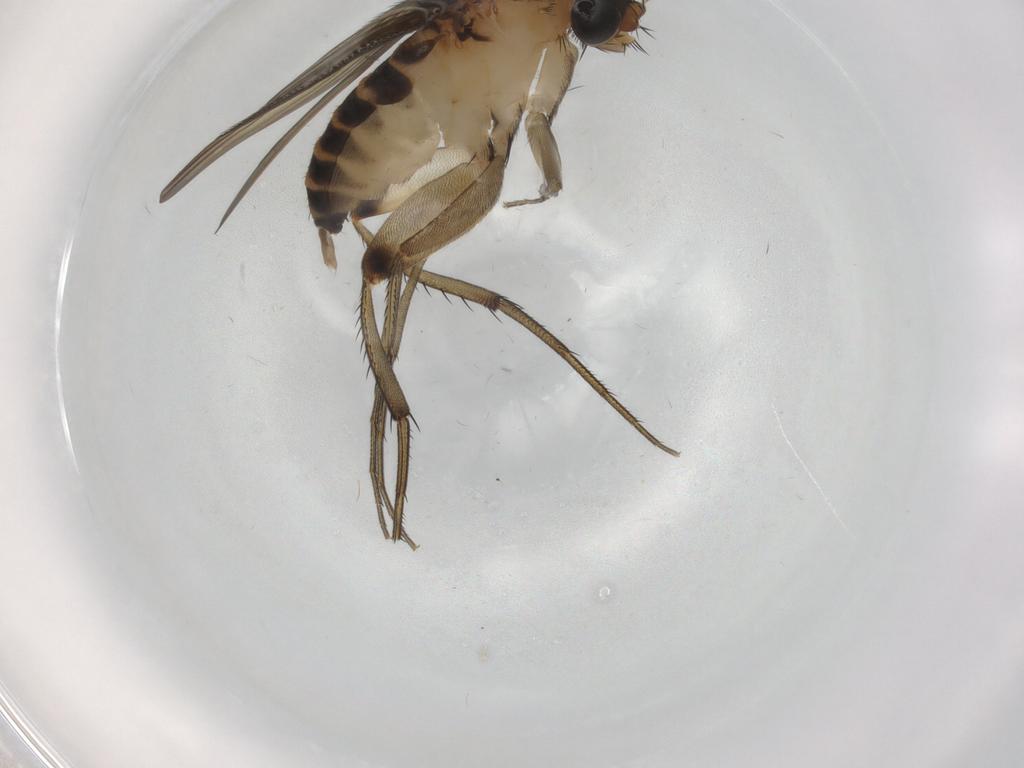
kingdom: Animalia
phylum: Arthropoda
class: Insecta
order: Diptera
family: Phoridae
